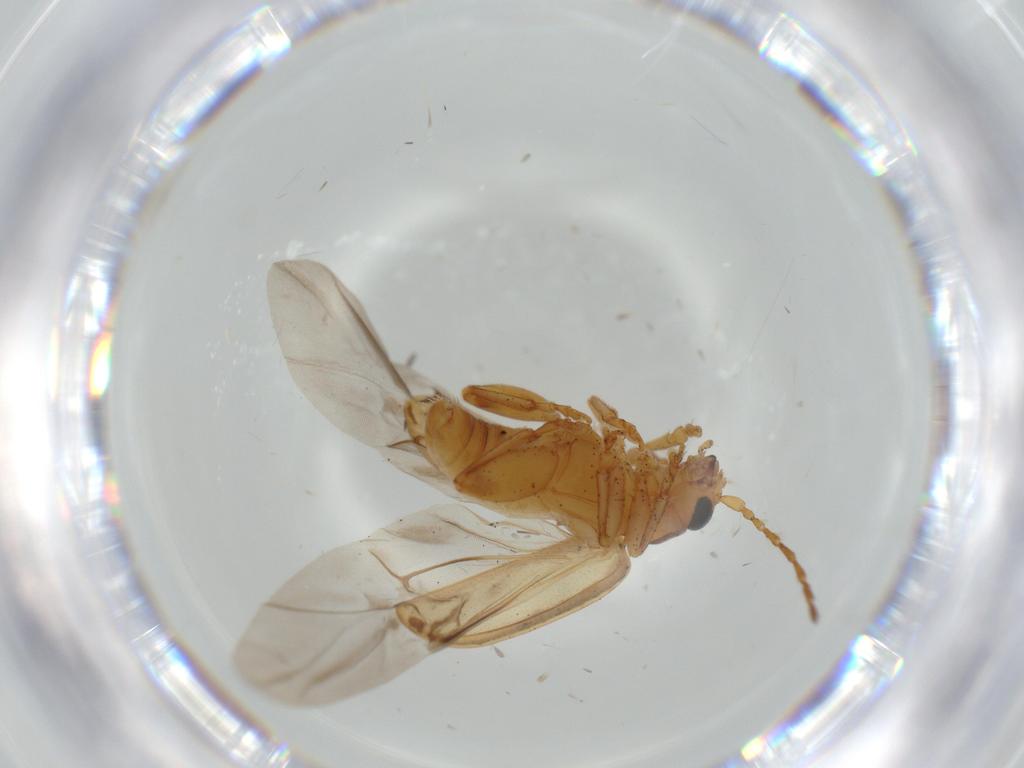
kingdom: Animalia
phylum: Arthropoda
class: Insecta
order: Coleoptera
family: Chrysomelidae
